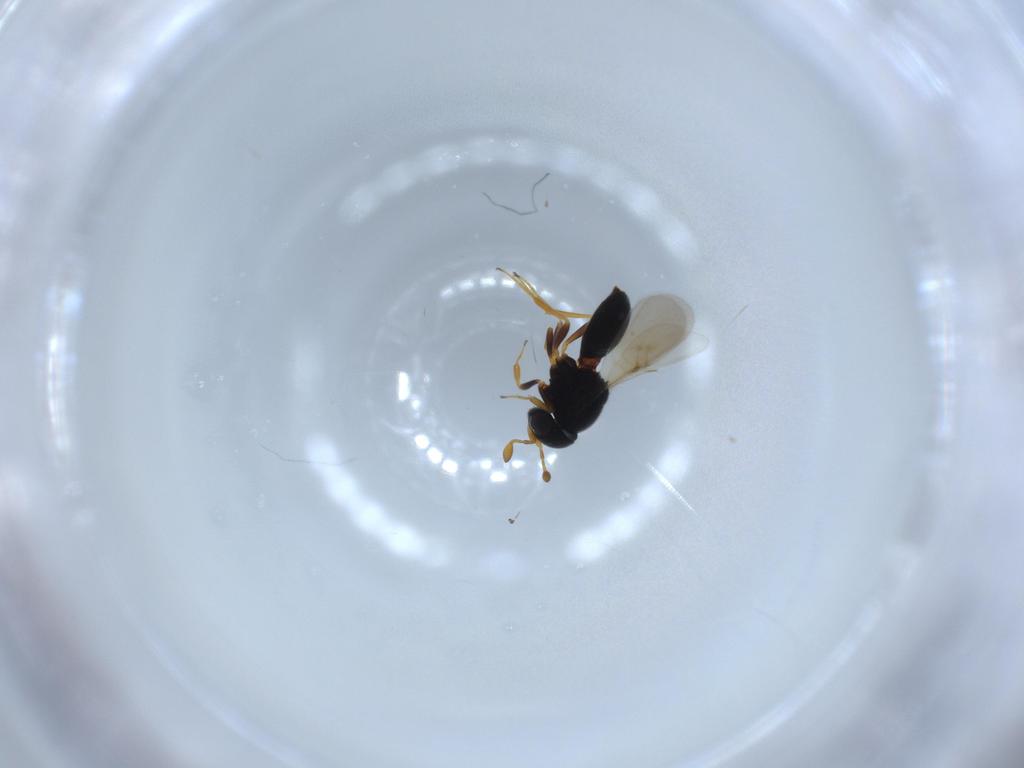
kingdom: Animalia
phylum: Arthropoda
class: Insecta
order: Hymenoptera
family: Scelionidae
